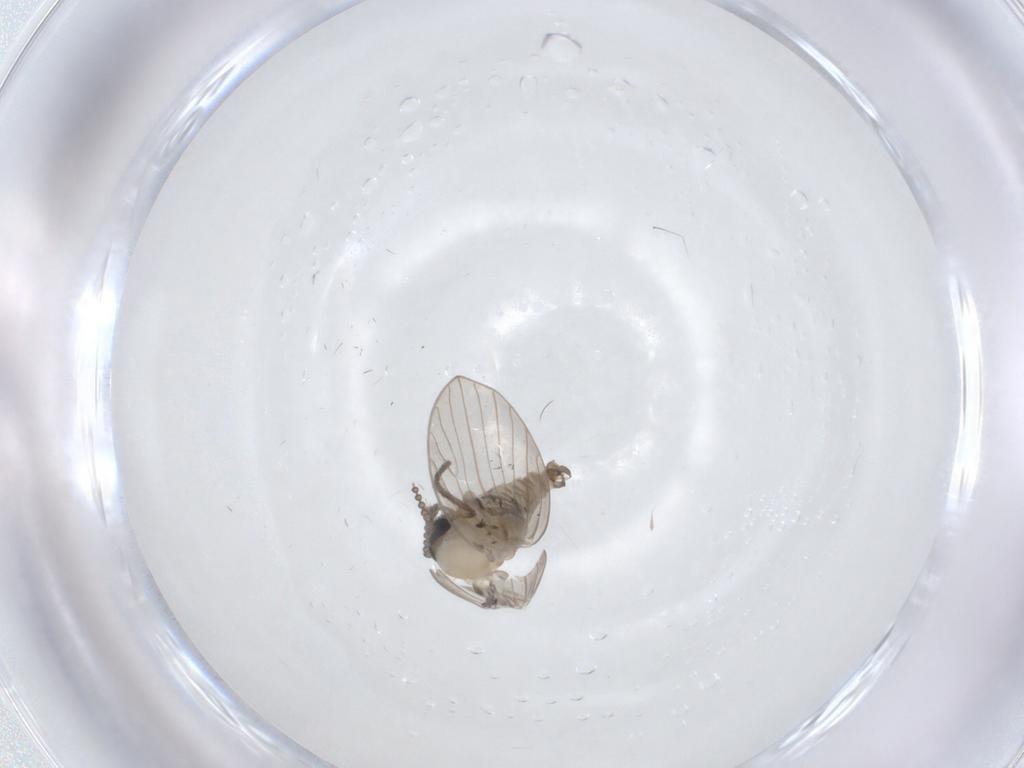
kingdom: Animalia
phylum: Arthropoda
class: Insecta
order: Diptera
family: Psychodidae
